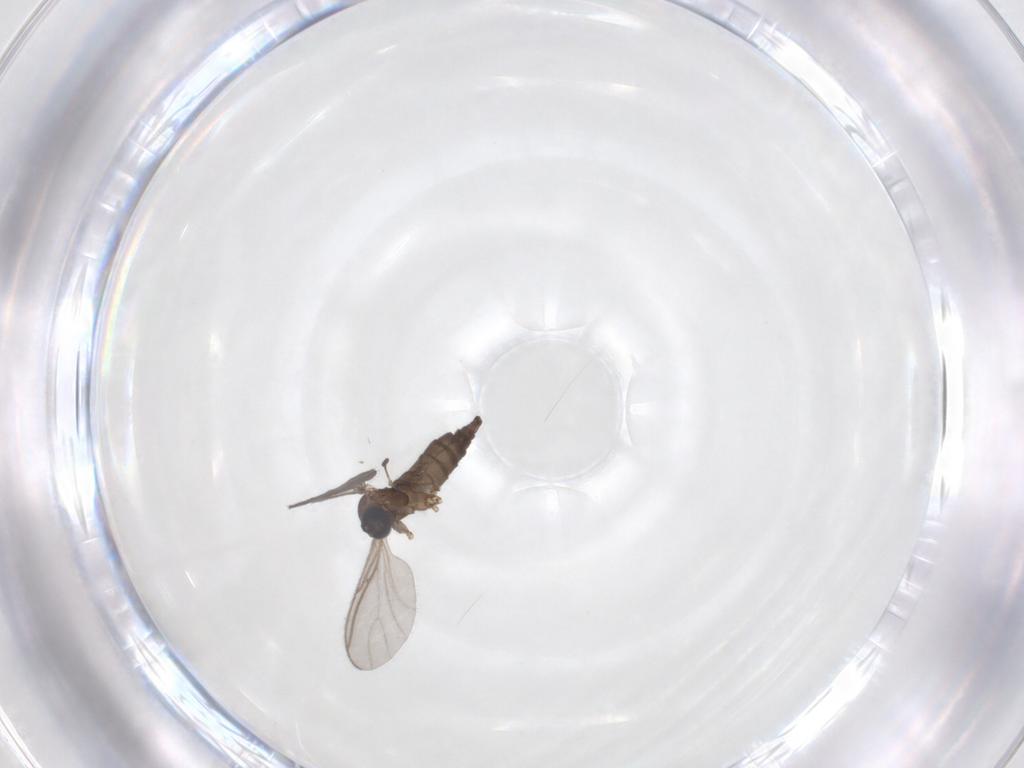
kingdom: Animalia
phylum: Arthropoda
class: Insecta
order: Diptera
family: Sciaridae
